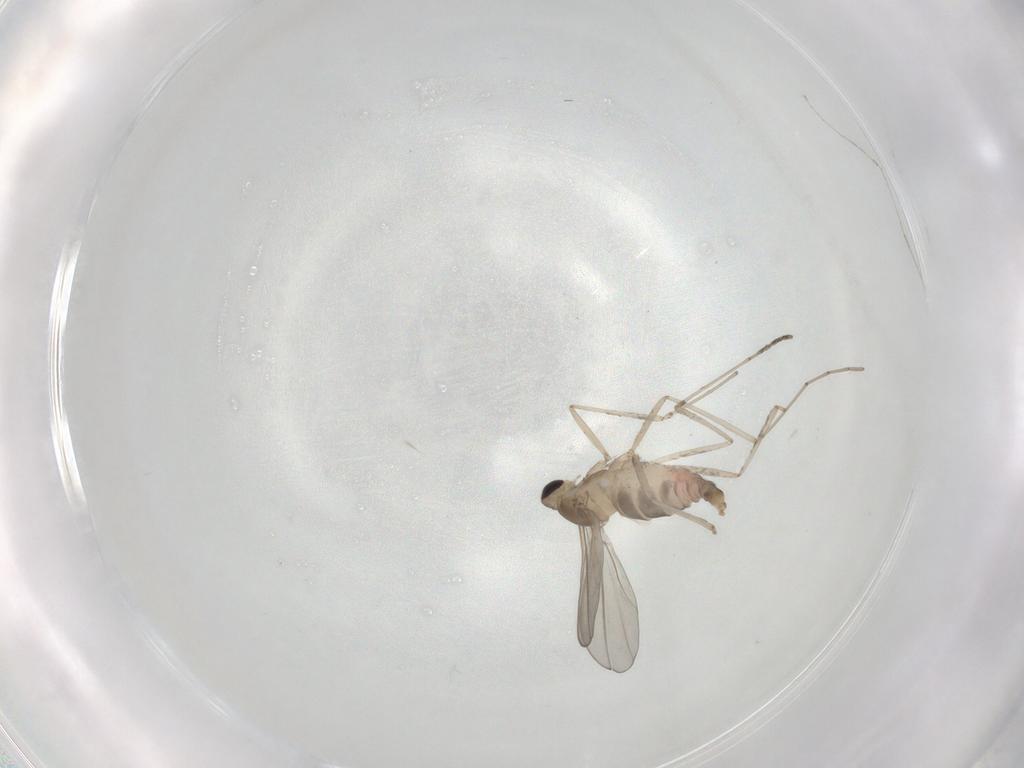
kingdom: Animalia
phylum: Arthropoda
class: Insecta
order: Diptera
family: Cecidomyiidae
